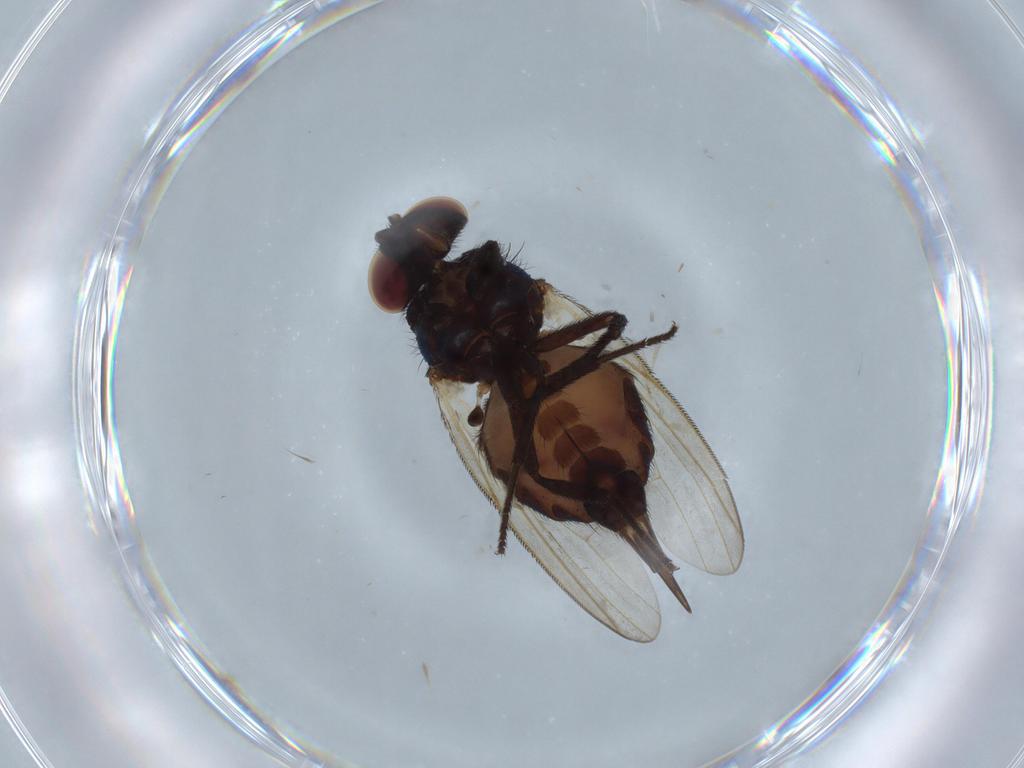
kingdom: Animalia
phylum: Arthropoda
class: Insecta
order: Diptera
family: Lonchaeidae
